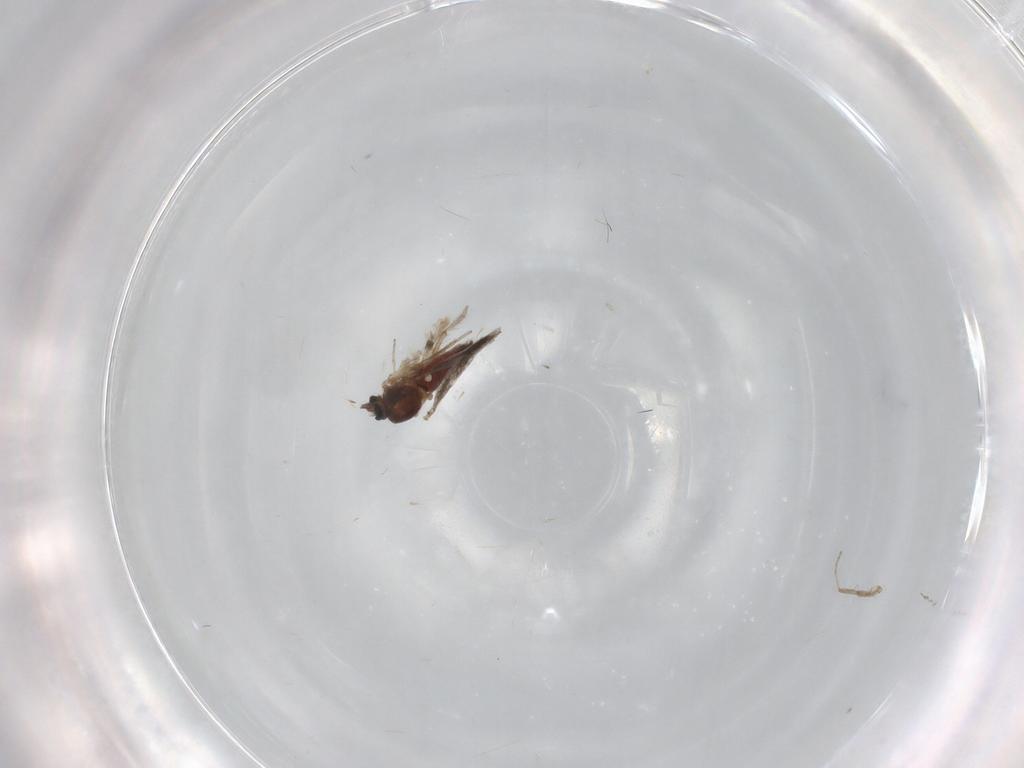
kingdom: Animalia
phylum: Arthropoda
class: Insecta
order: Diptera
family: Ceratopogonidae
